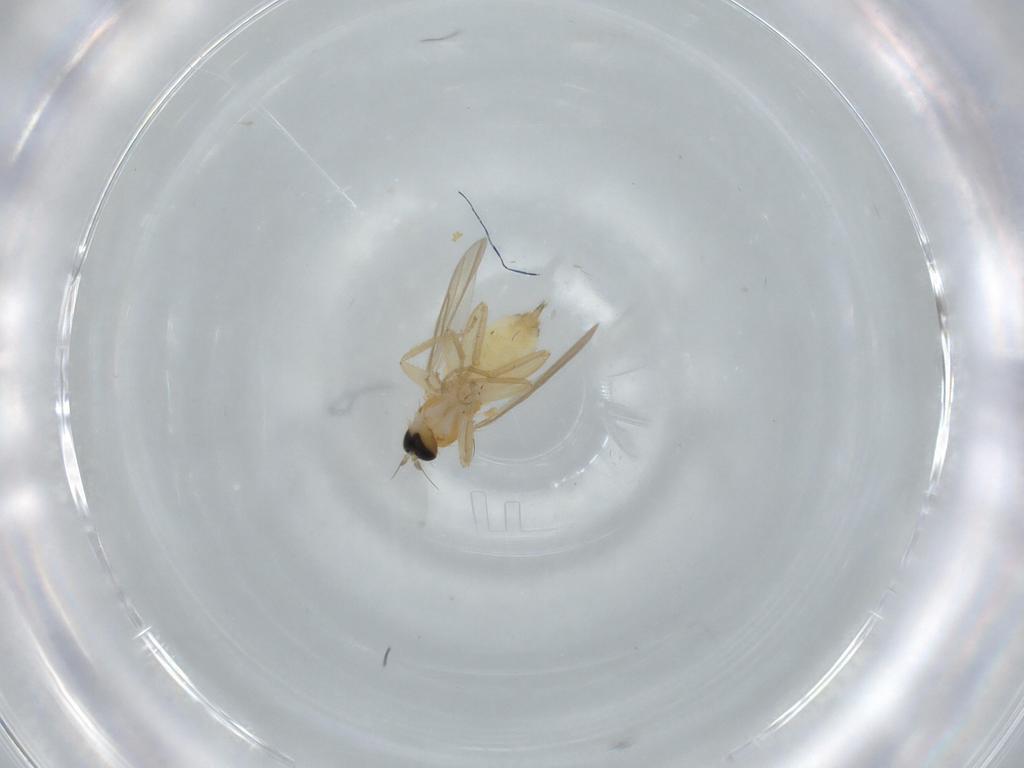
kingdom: Animalia
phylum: Arthropoda
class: Insecta
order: Diptera
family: Hybotidae
